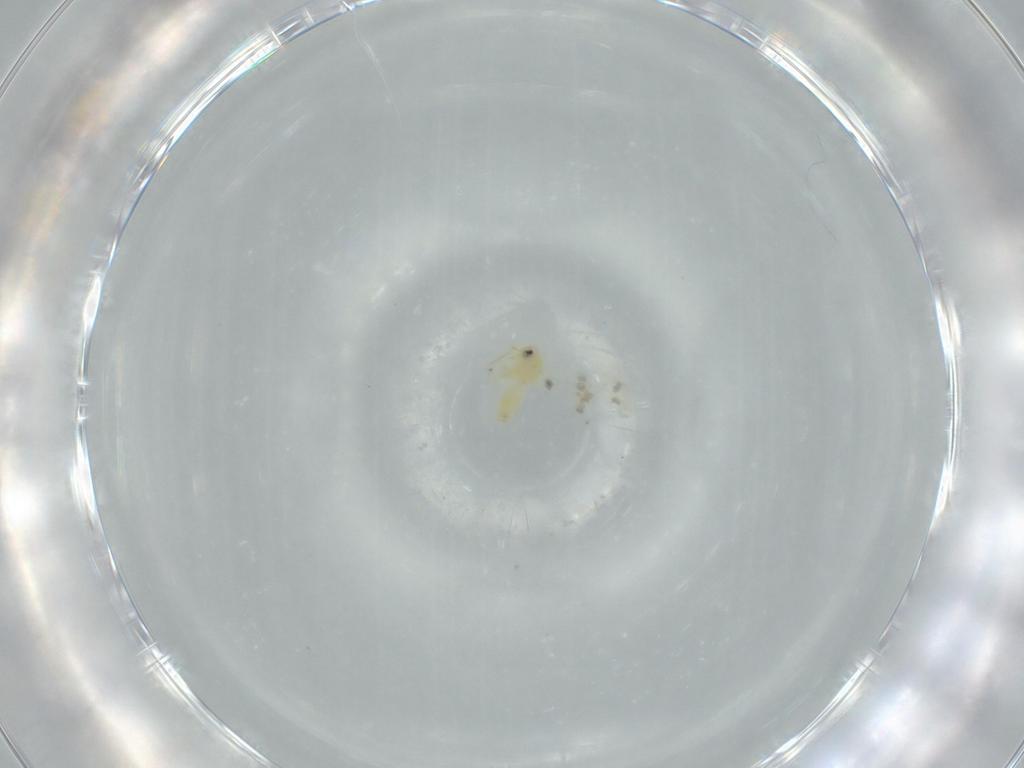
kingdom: Animalia
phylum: Arthropoda
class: Insecta
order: Hemiptera
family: Aleyrodidae
